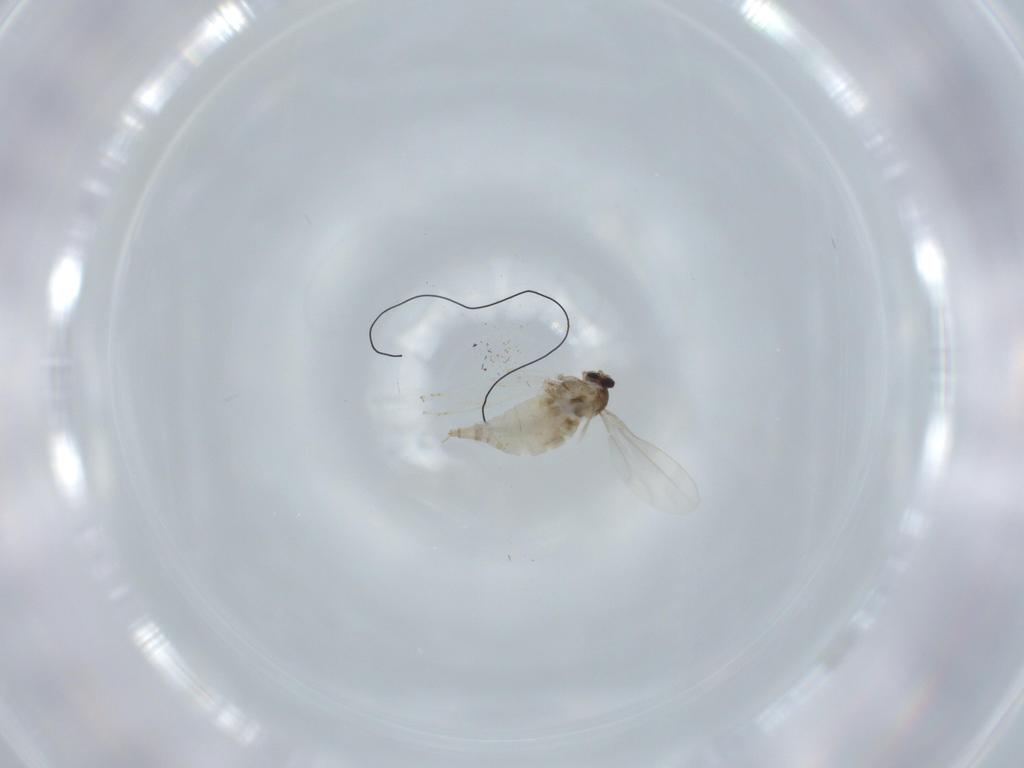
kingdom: Animalia
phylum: Arthropoda
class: Insecta
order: Diptera
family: Cecidomyiidae
